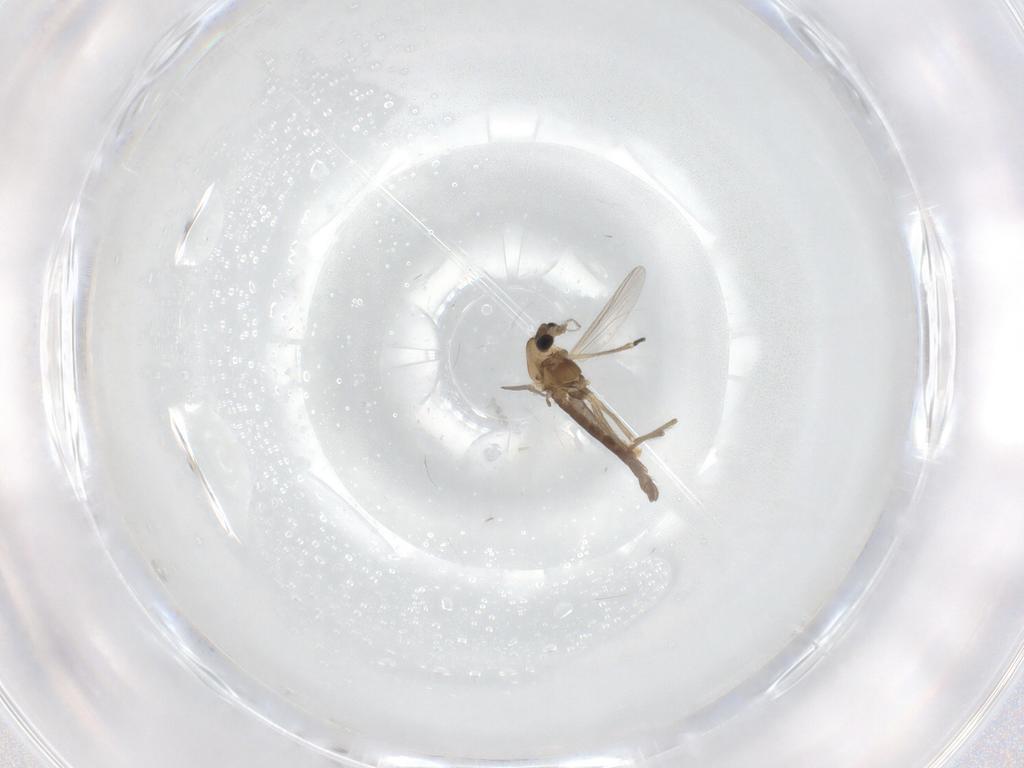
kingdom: Animalia
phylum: Arthropoda
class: Insecta
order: Diptera
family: Chironomidae
